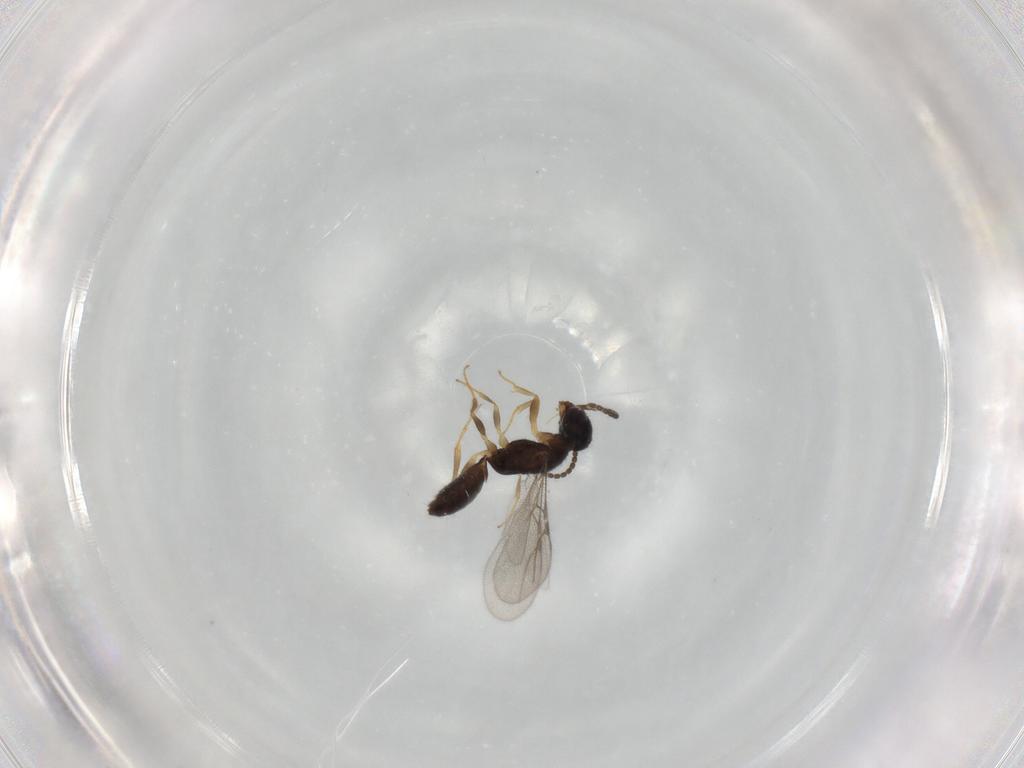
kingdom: Animalia
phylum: Arthropoda
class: Insecta
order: Hymenoptera
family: Bethylidae
